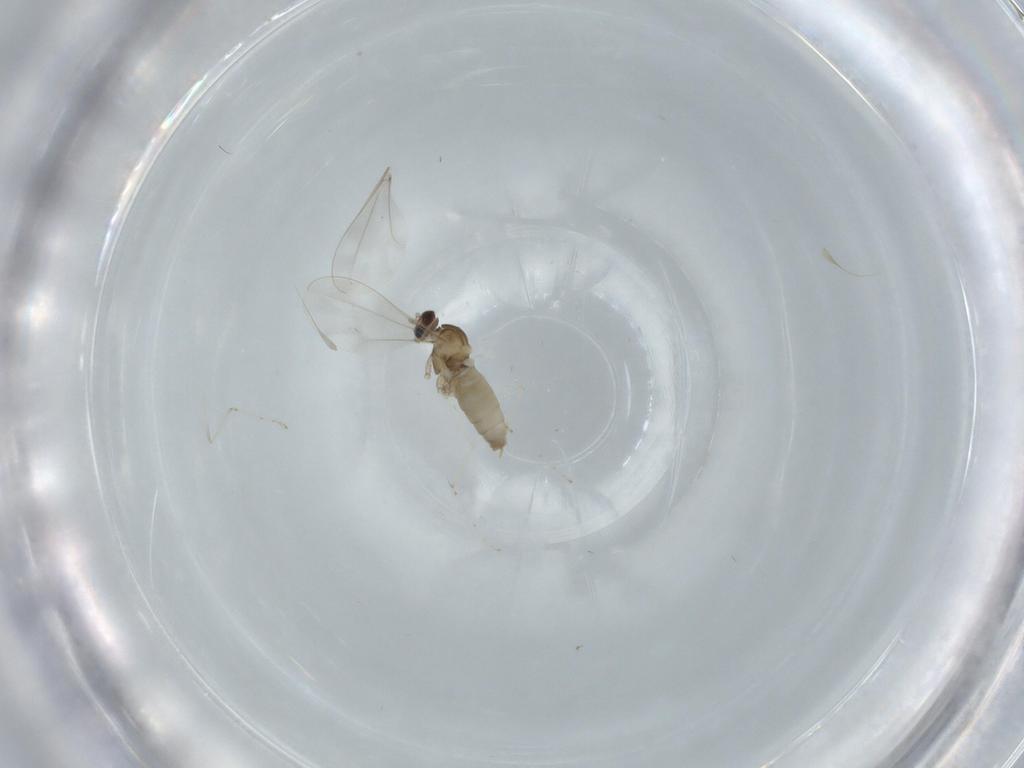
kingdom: Animalia
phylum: Arthropoda
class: Insecta
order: Diptera
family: Cecidomyiidae
